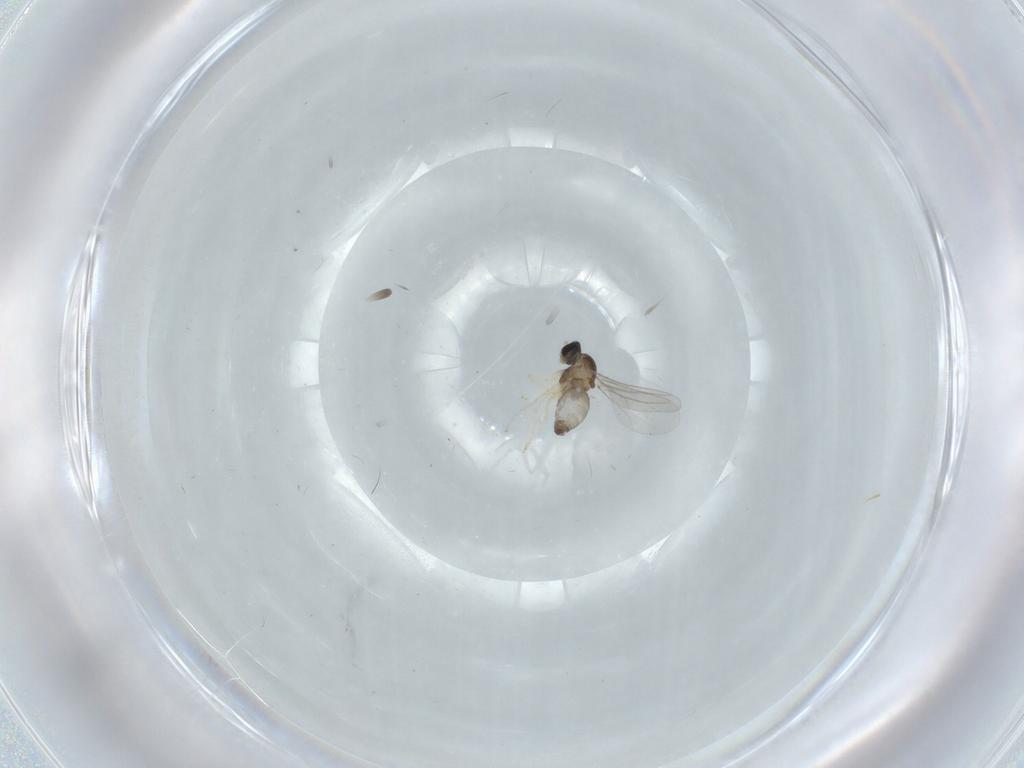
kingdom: Animalia
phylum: Arthropoda
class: Insecta
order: Diptera
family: Cecidomyiidae
